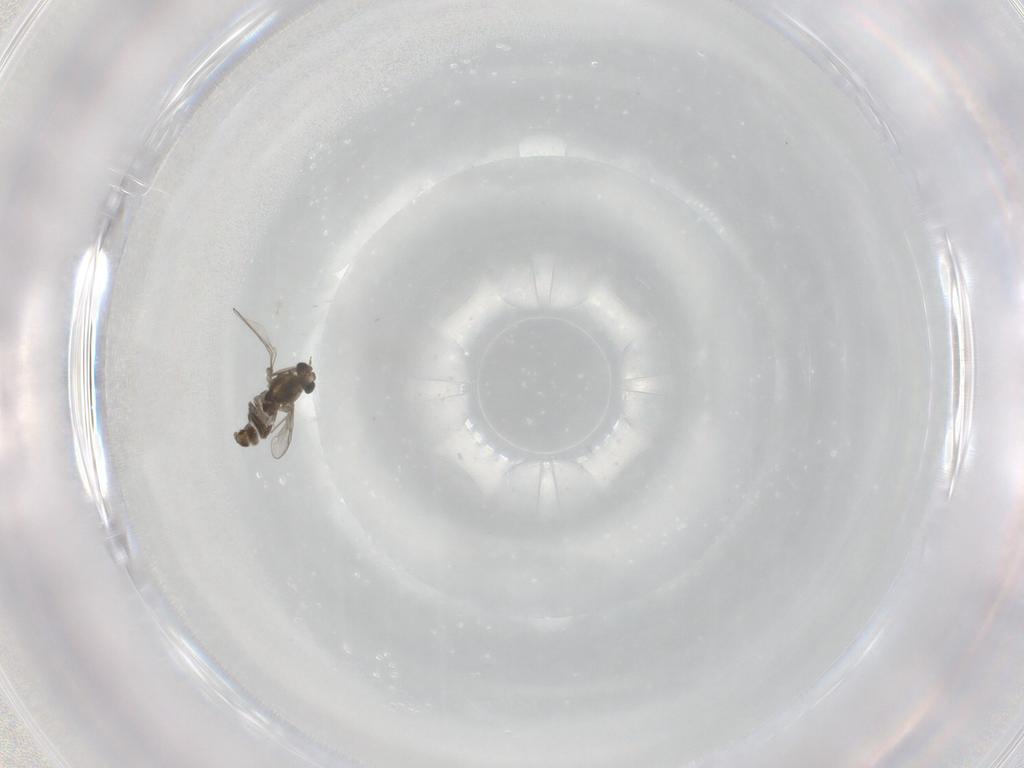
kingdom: Animalia
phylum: Arthropoda
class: Insecta
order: Diptera
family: Chironomidae
